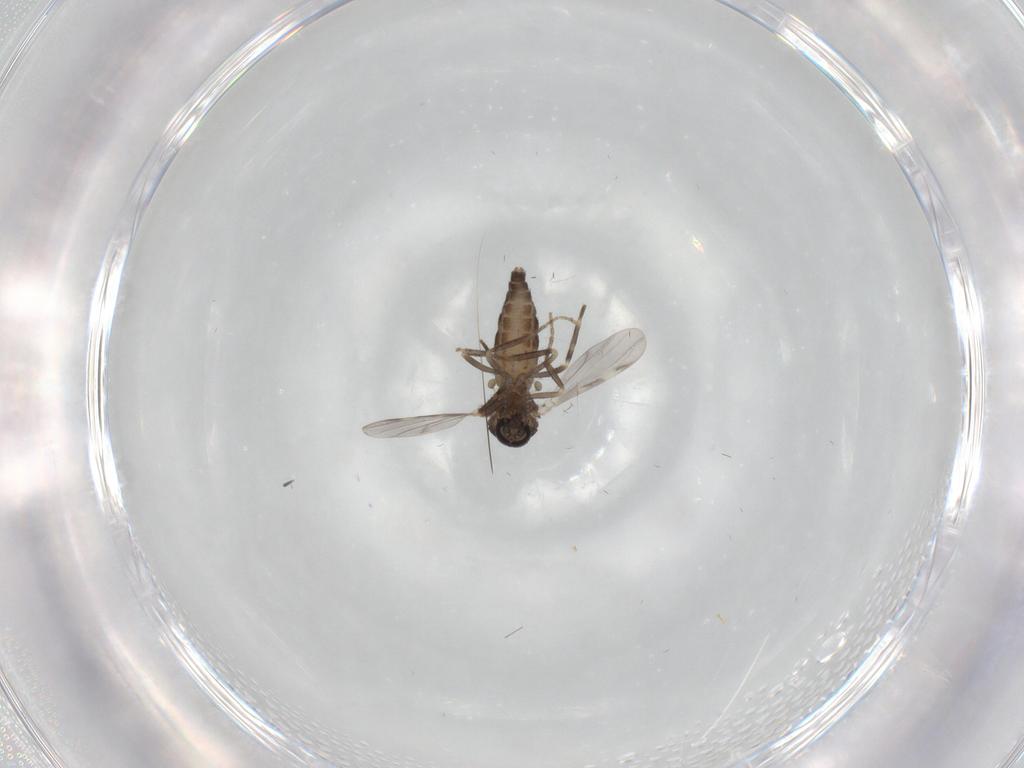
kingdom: Animalia
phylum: Arthropoda
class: Insecta
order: Diptera
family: Ceratopogonidae
